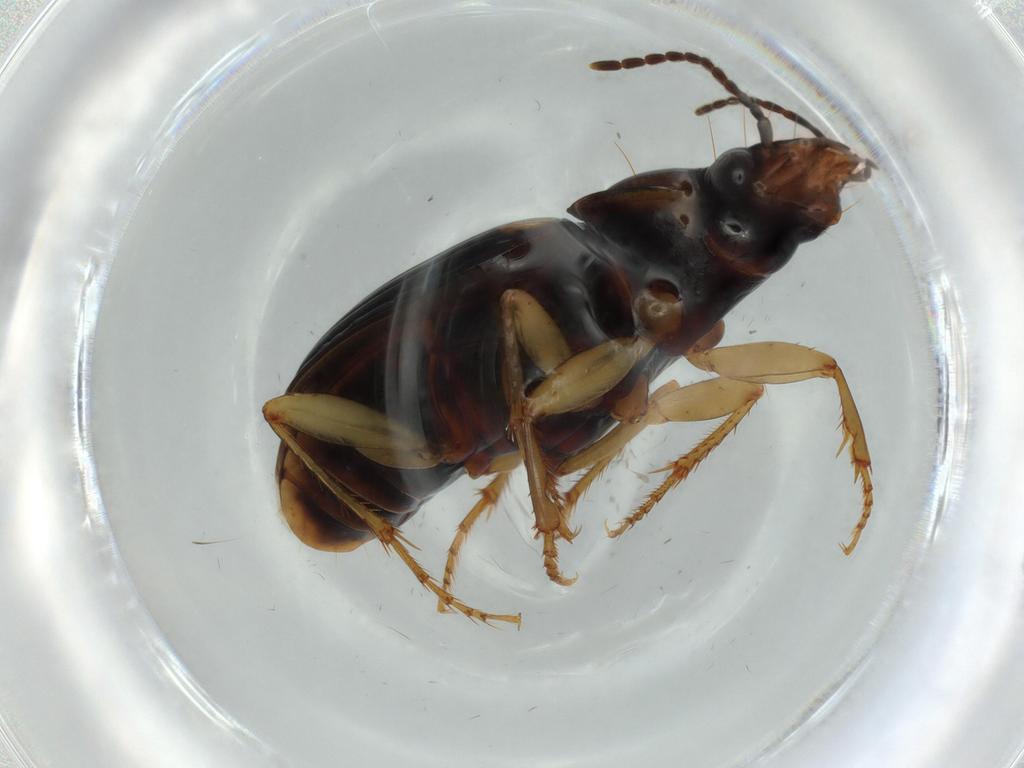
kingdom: Animalia
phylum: Arthropoda
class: Insecta
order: Coleoptera
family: Carabidae
